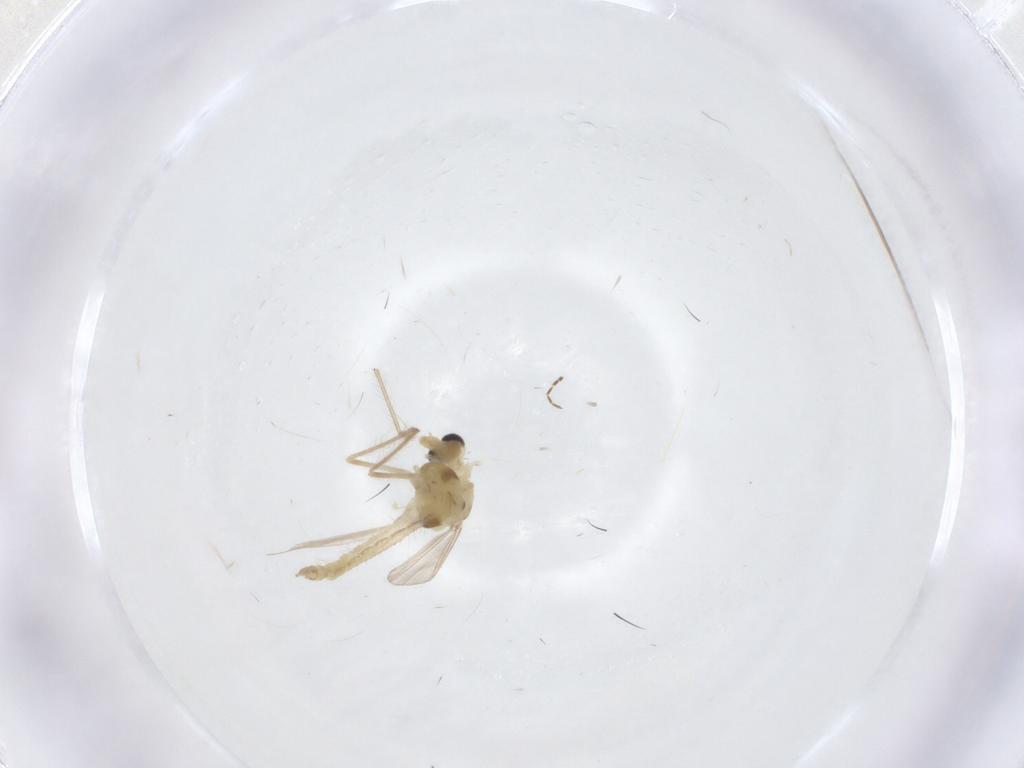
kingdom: Animalia
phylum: Arthropoda
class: Insecta
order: Diptera
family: Chironomidae
